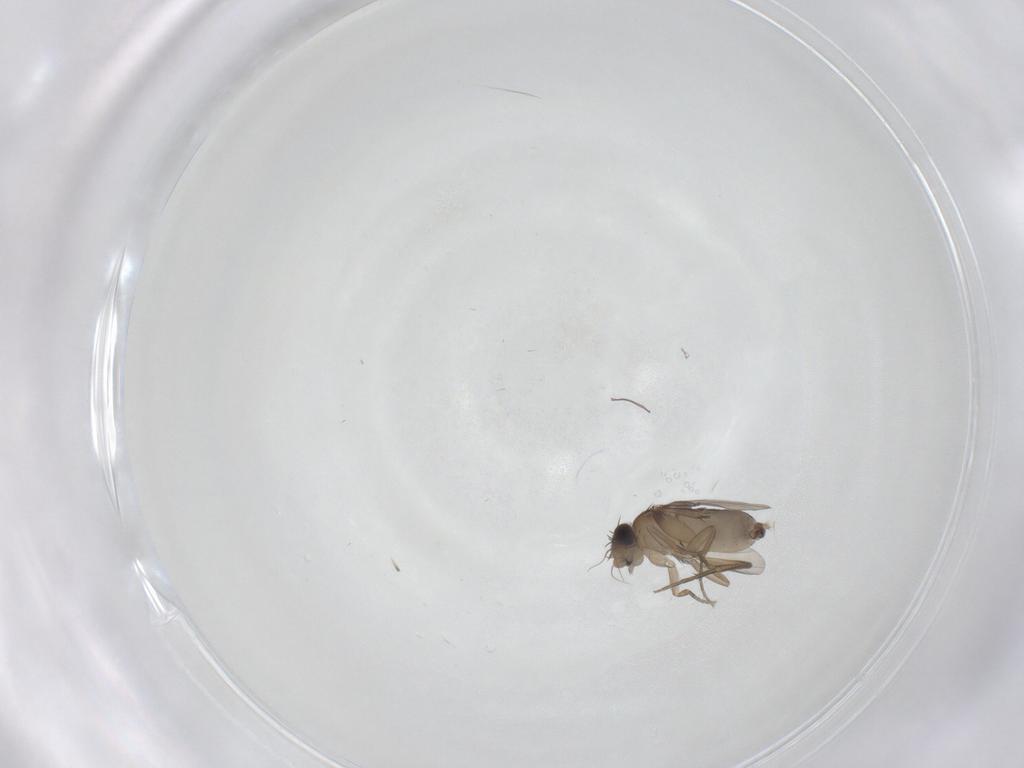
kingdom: Animalia
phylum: Arthropoda
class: Insecta
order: Diptera
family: Phoridae
